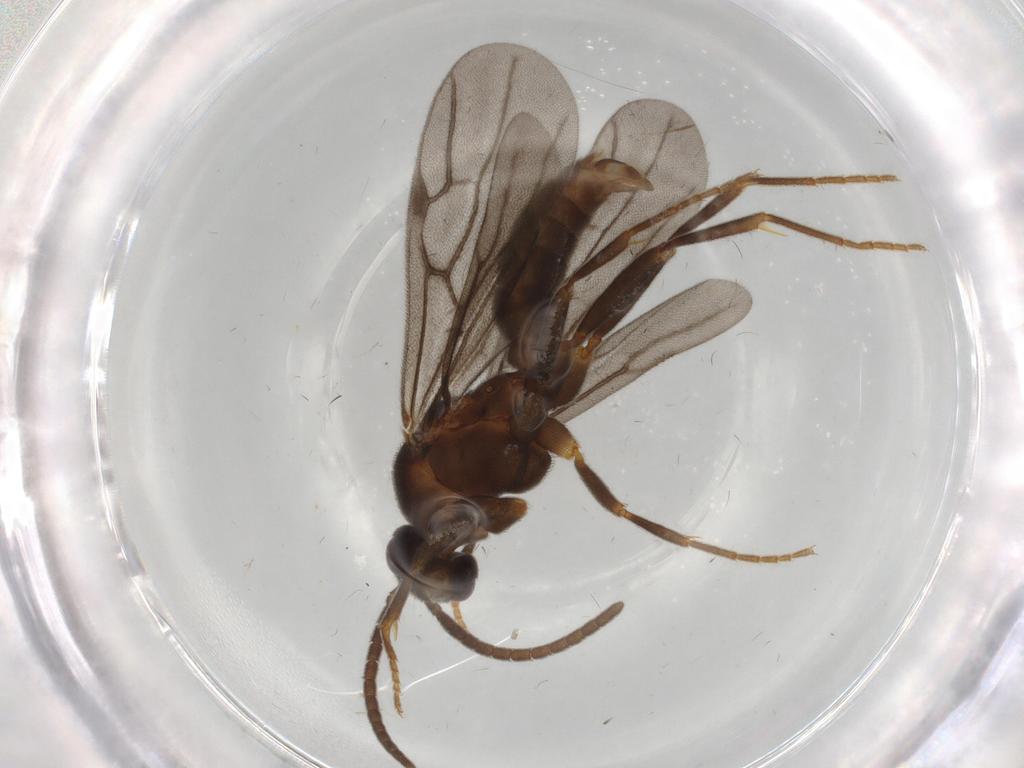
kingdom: Animalia
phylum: Arthropoda
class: Insecta
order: Hymenoptera
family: Formicidae
